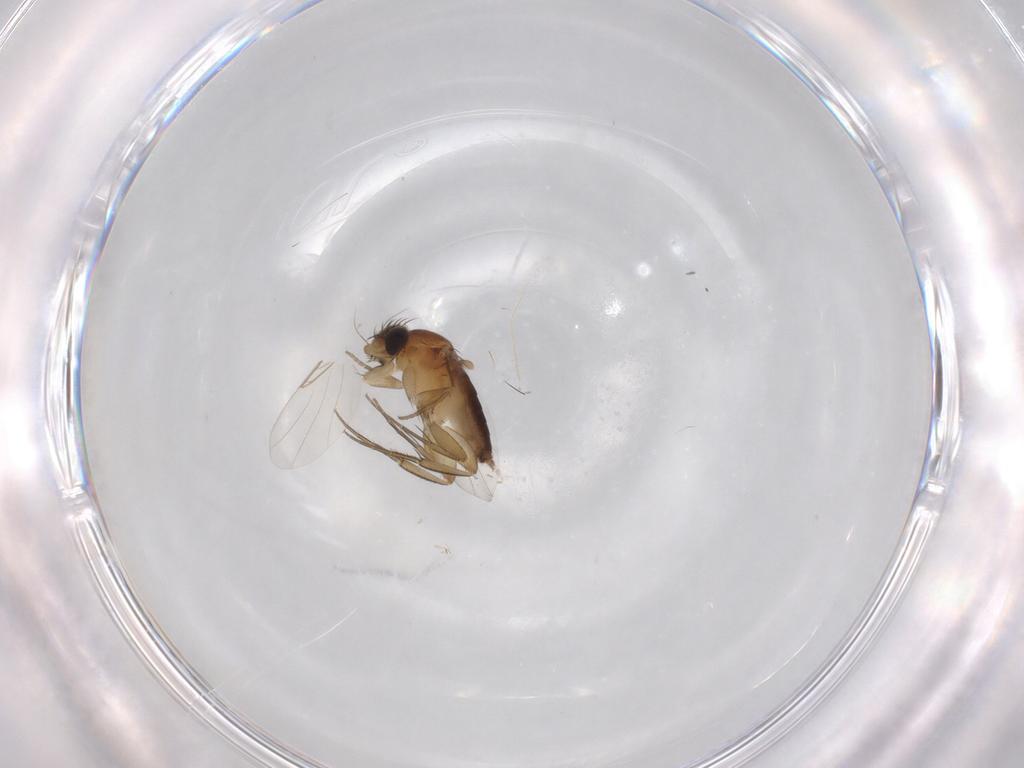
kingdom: Animalia
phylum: Arthropoda
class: Insecta
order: Diptera
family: Phoridae
